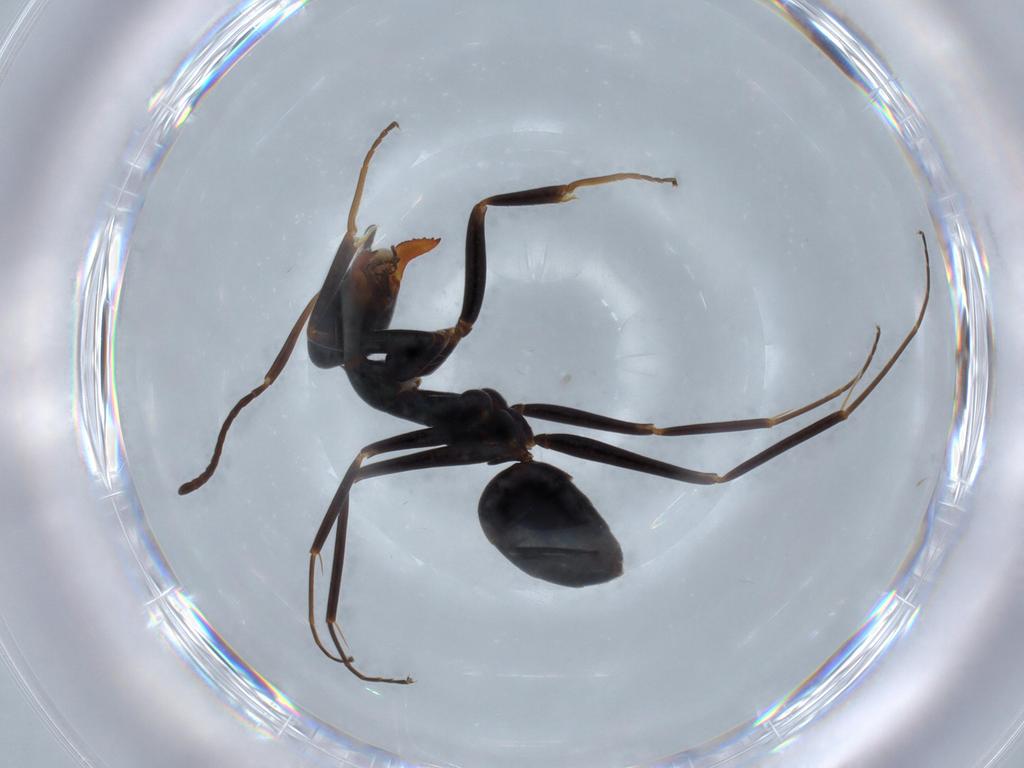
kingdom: Animalia
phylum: Arthropoda
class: Insecta
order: Hymenoptera
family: Formicidae
